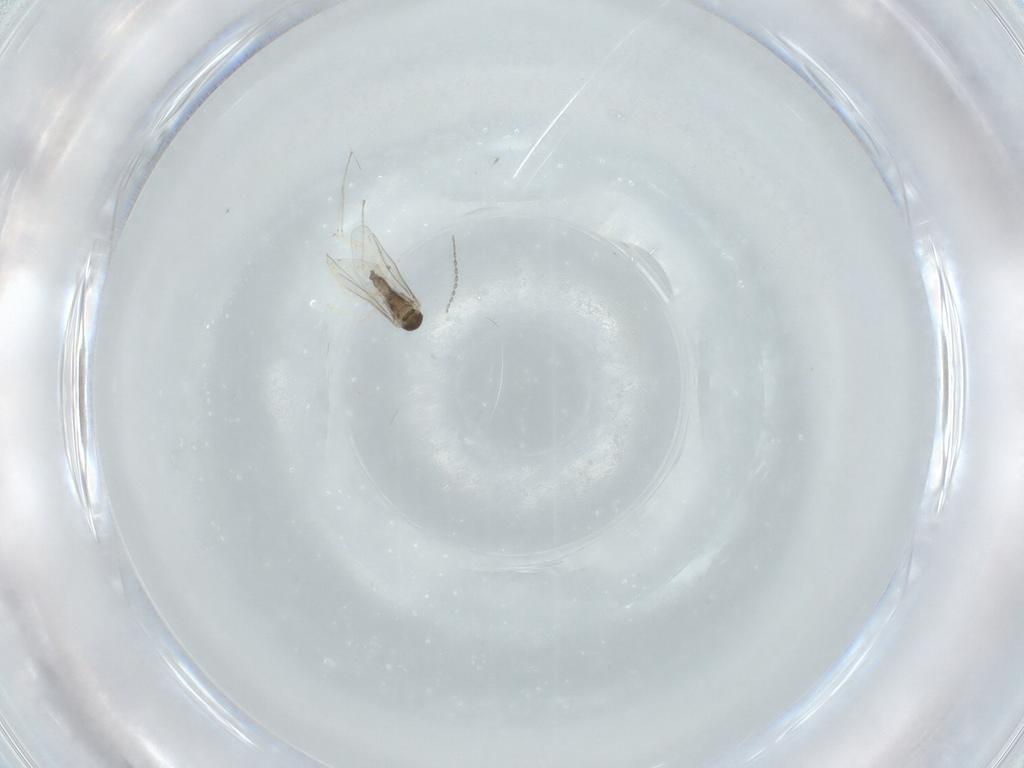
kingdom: Animalia
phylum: Arthropoda
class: Insecta
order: Diptera
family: Cecidomyiidae
